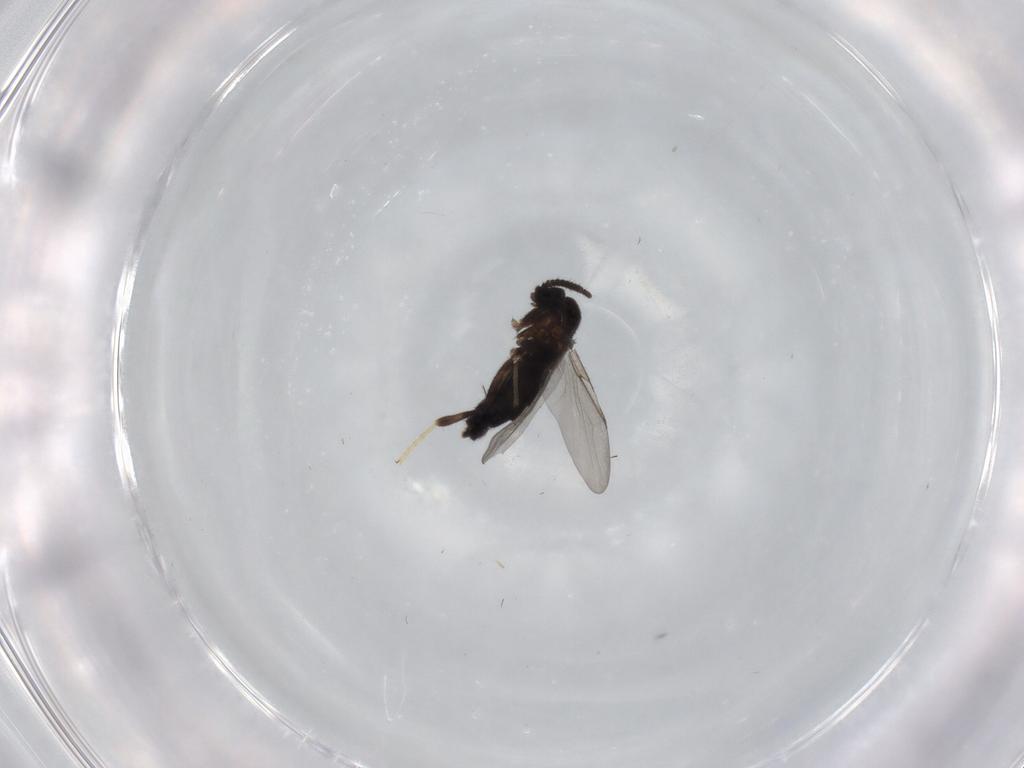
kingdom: Animalia
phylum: Arthropoda
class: Insecta
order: Diptera
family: Scatopsidae
